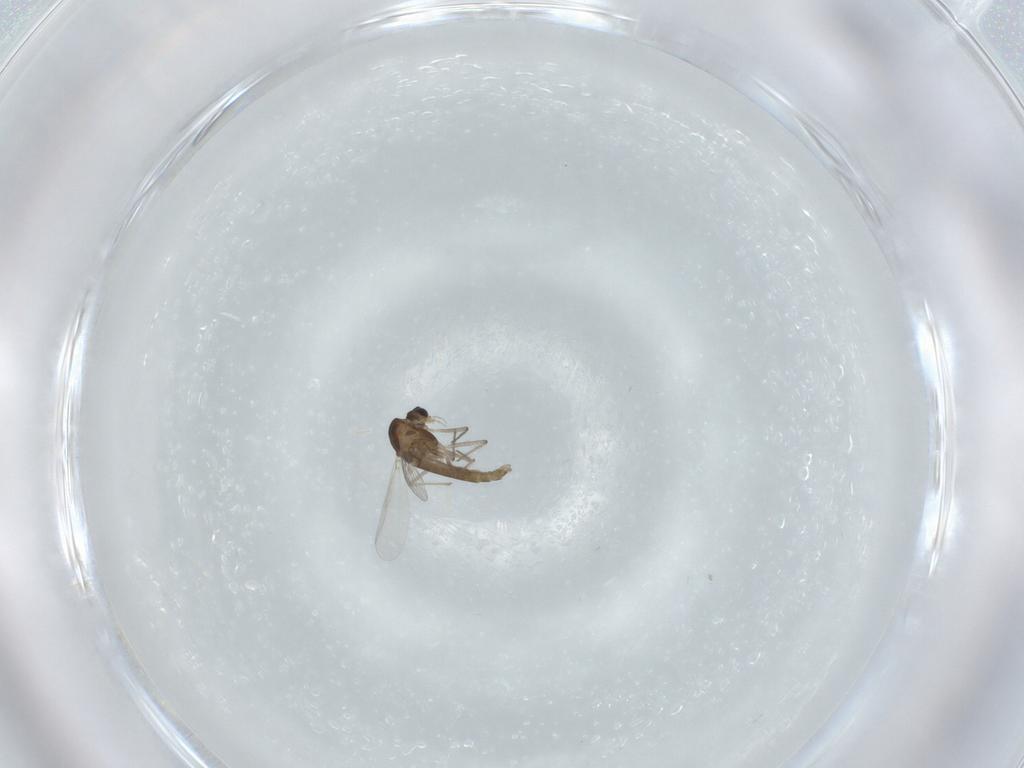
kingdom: Animalia
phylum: Arthropoda
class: Insecta
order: Diptera
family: Chironomidae
